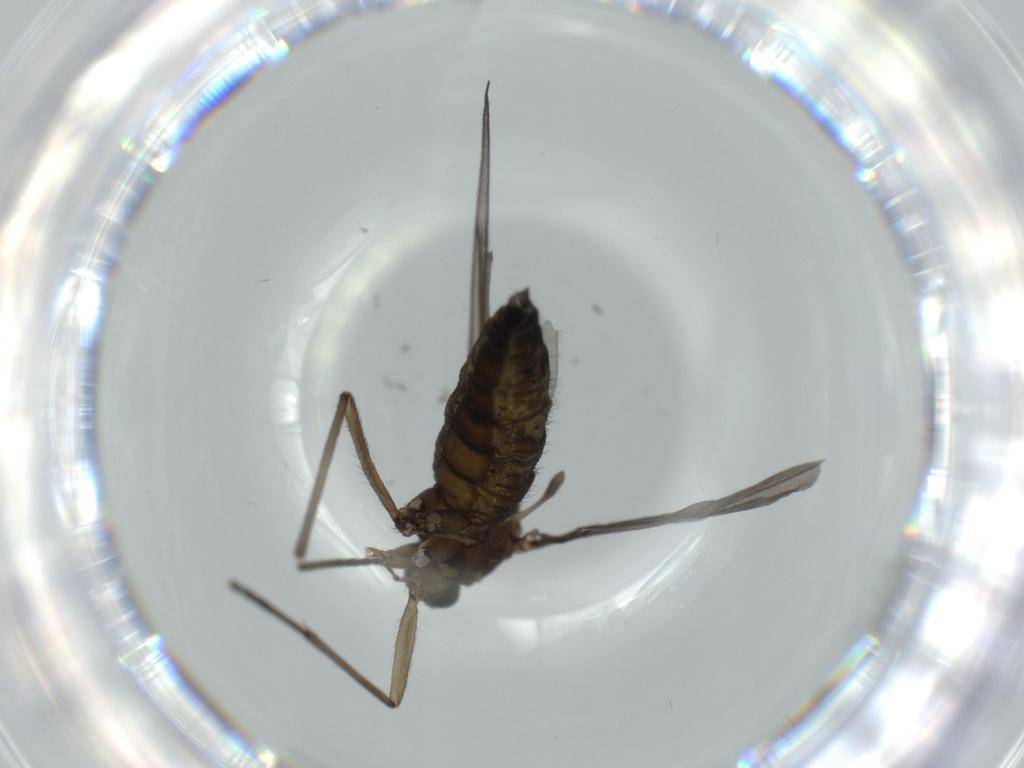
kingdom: Animalia
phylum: Arthropoda
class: Insecta
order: Diptera
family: Sciaridae
